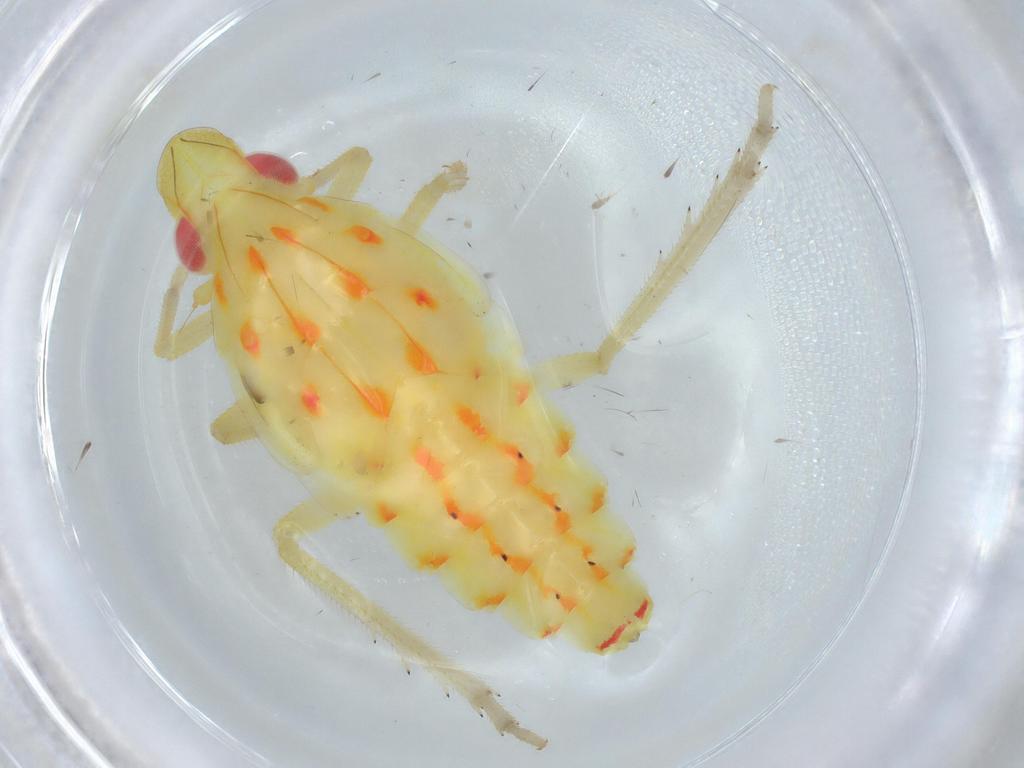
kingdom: Animalia
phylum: Arthropoda
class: Insecta
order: Hemiptera
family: Tropiduchidae
